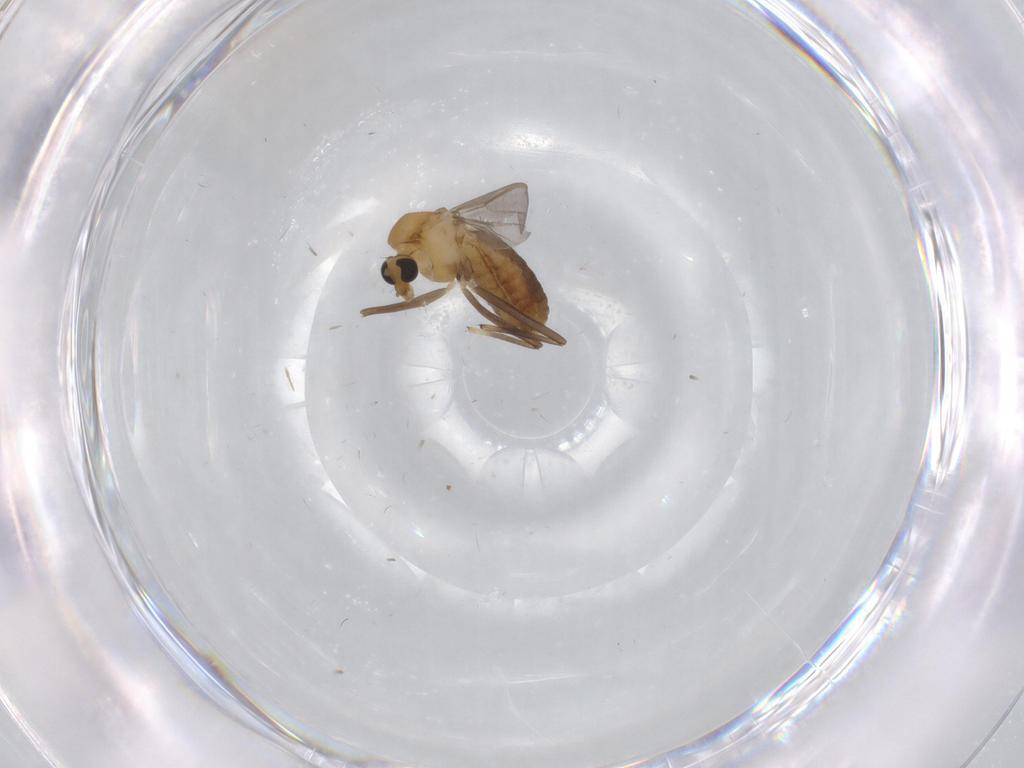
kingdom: Animalia
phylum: Arthropoda
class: Insecta
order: Diptera
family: Chironomidae
